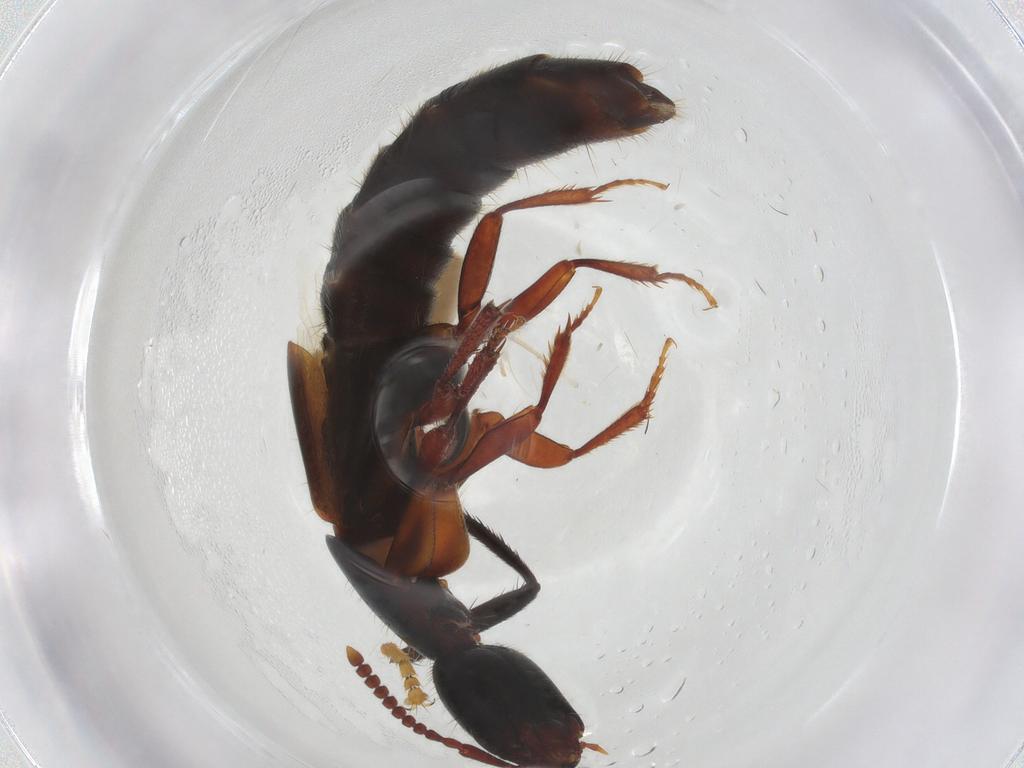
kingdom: Animalia
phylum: Arthropoda
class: Insecta
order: Coleoptera
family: Staphylinidae
